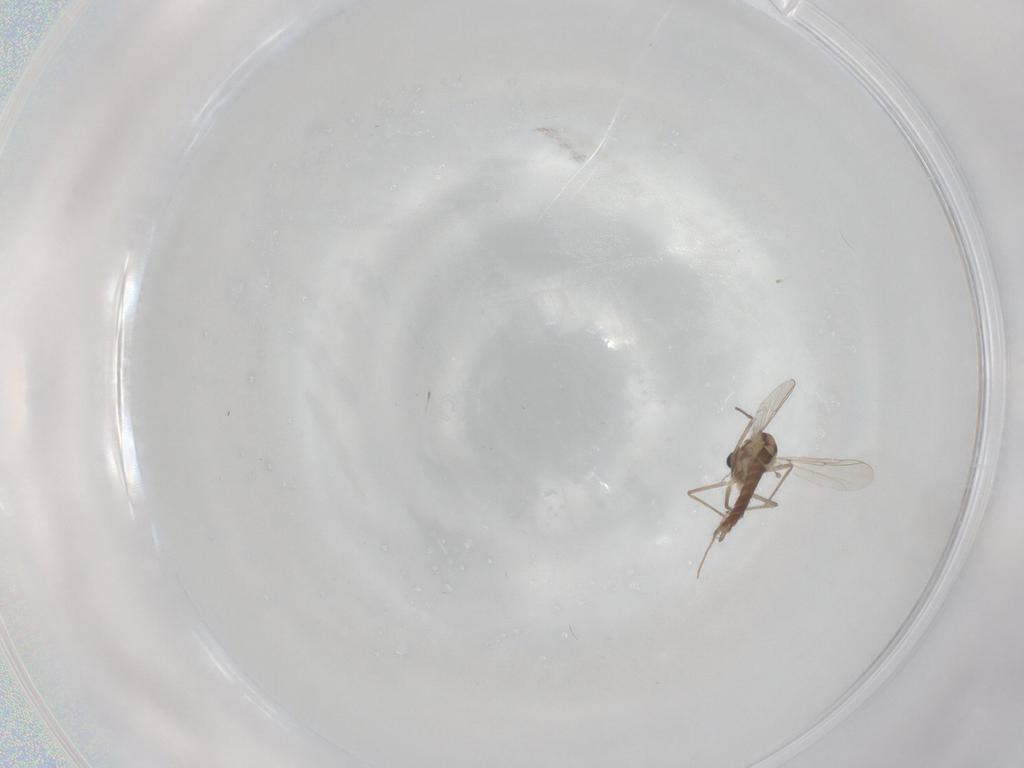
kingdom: Animalia
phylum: Arthropoda
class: Insecta
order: Diptera
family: Chironomidae
